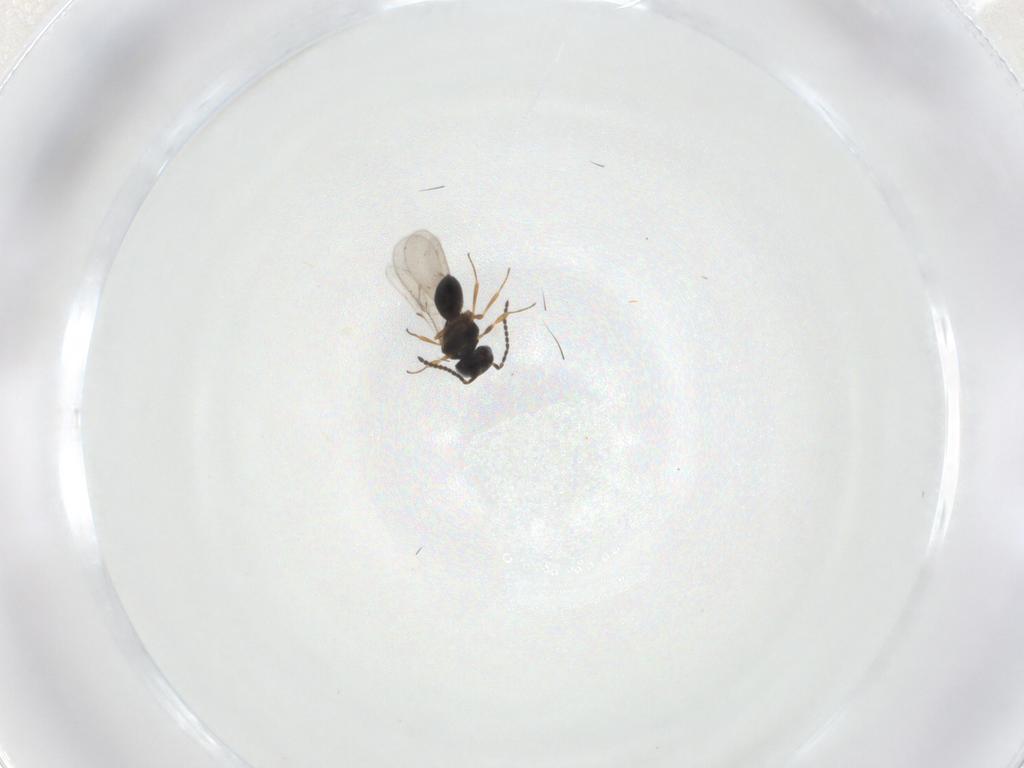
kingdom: Animalia
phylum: Arthropoda
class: Insecta
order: Hymenoptera
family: Scelionidae
